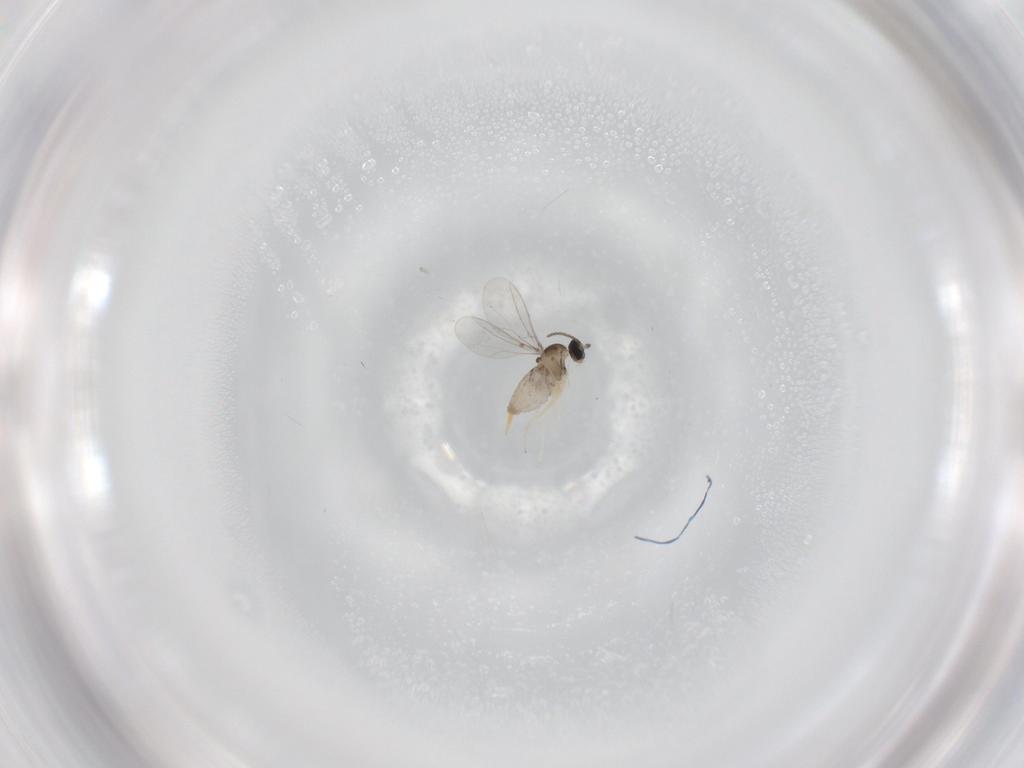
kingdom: Animalia
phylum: Arthropoda
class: Insecta
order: Diptera
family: Cecidomyiidae
